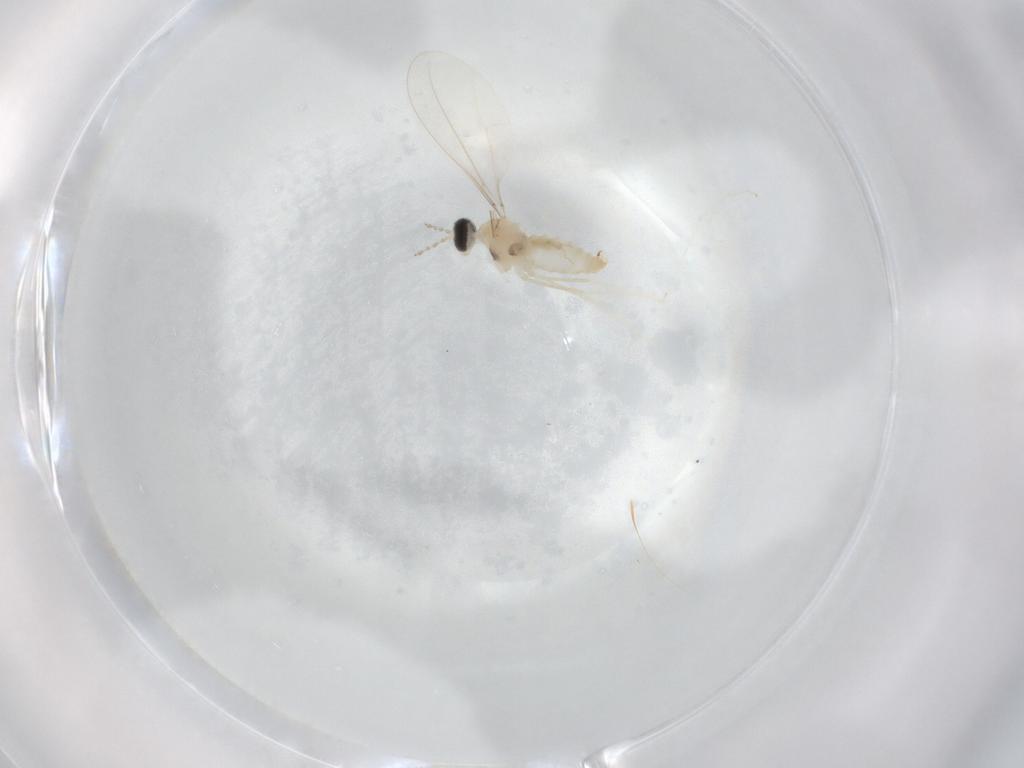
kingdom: Animalia
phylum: Arthropoda
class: Insecta
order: Diptera
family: Cecidomyiidae
